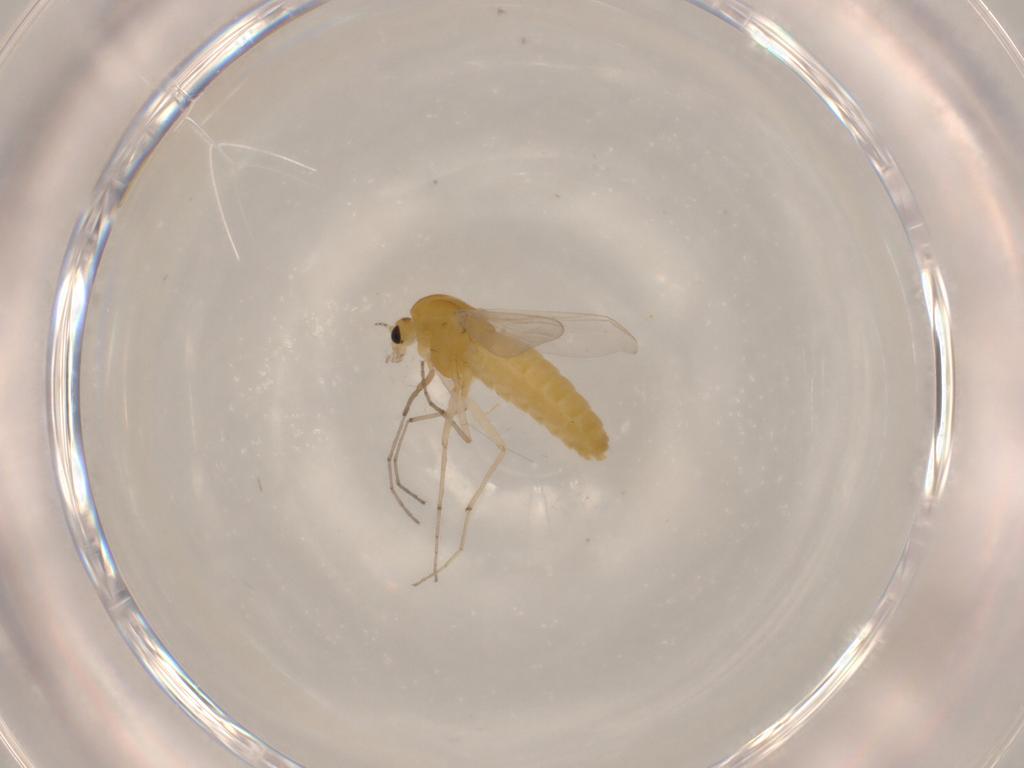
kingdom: Animalia
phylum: Arthropoda
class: Insecta
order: Diptera
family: Chironomidae
